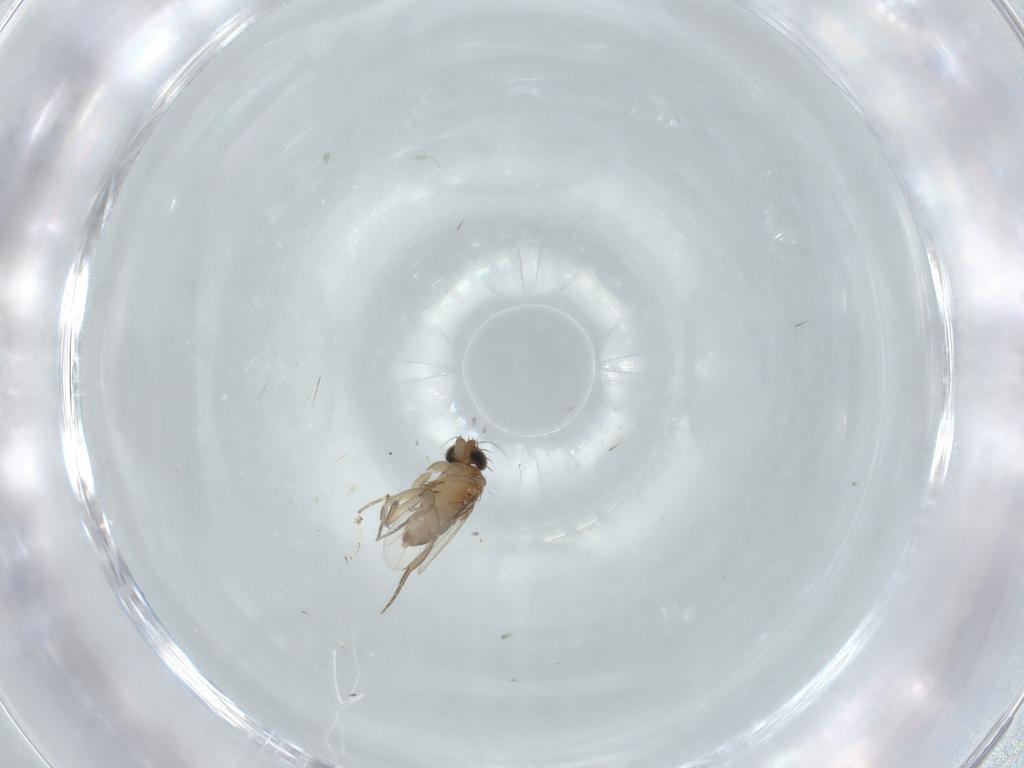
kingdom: Animalia
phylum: Arthropoda
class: Insecta
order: Diptera
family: Phoridae
